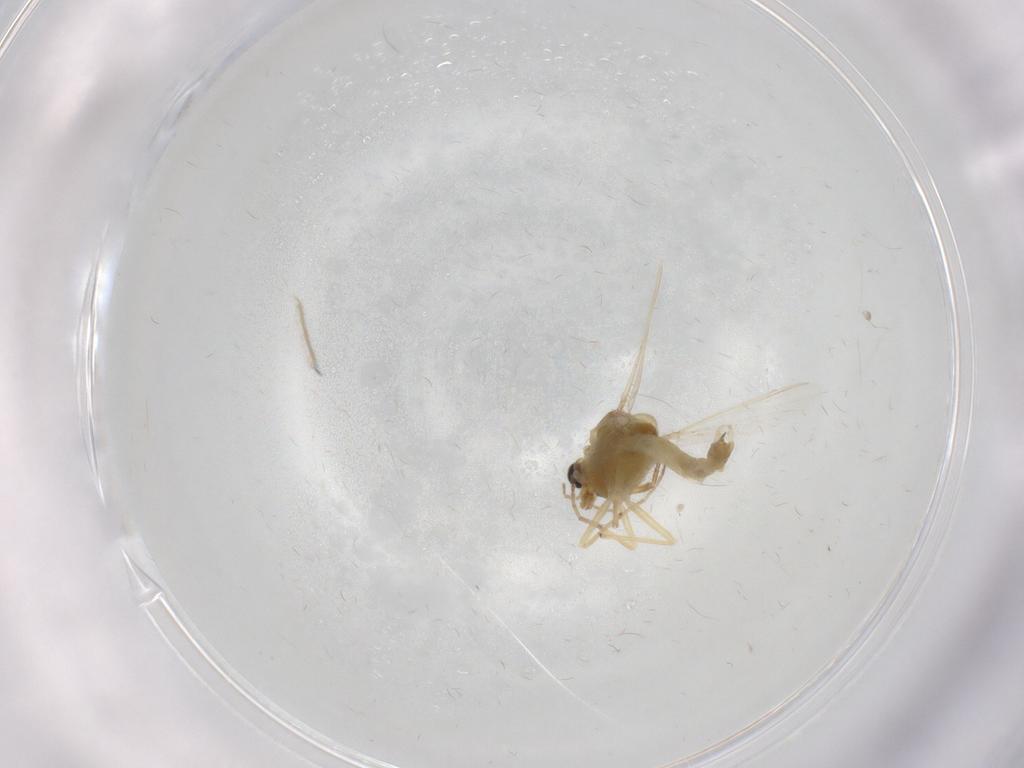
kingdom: Animalia
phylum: Arthropoda
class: Insecta
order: Diptera
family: Chironomidae
